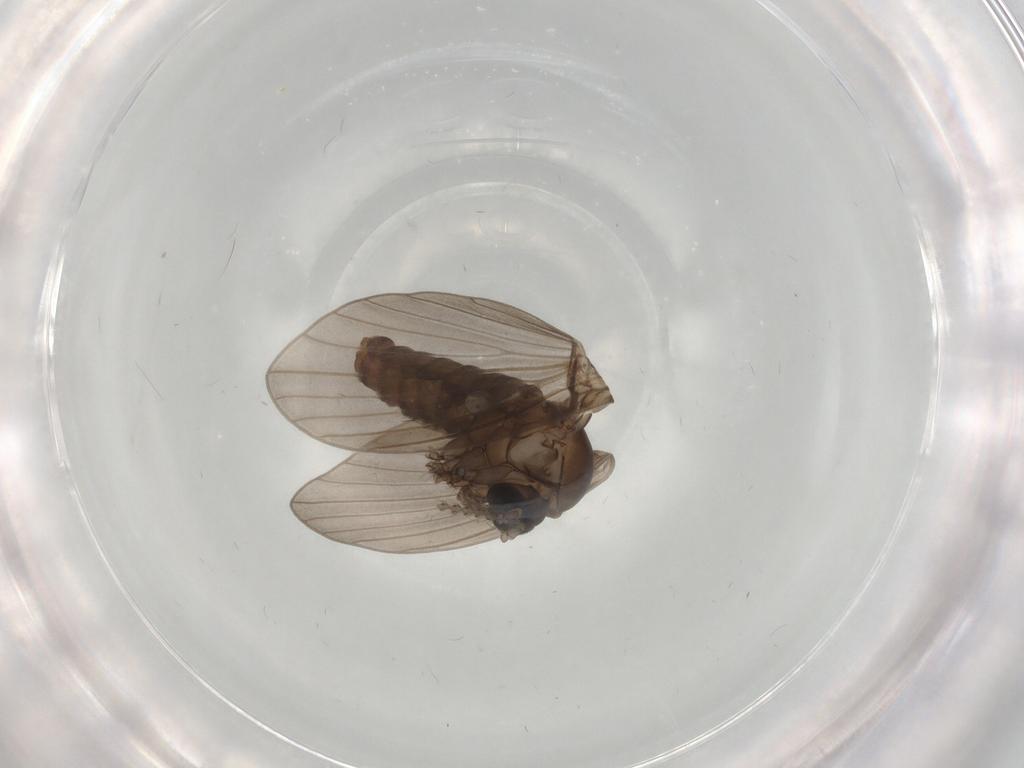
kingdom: Animalia
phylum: Arthropoda
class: Insecta
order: Diptera
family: Psychodidae
